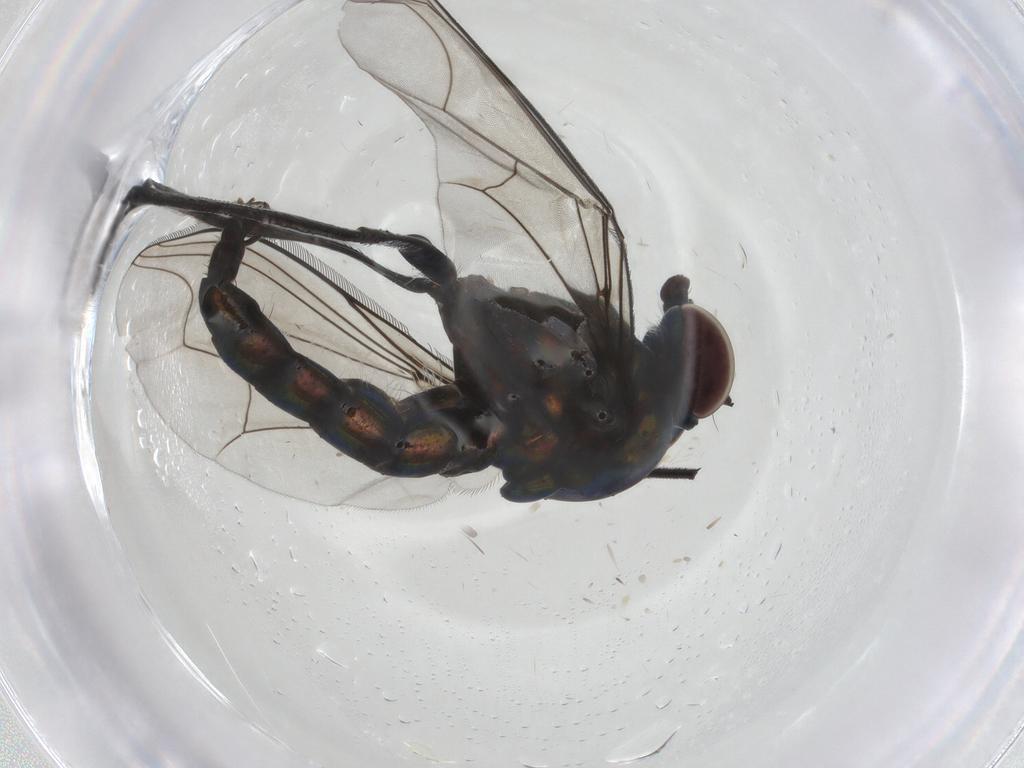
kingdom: Animalia
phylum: Arthropoda
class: Insecta
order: Diptera
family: Dolichopodidae
